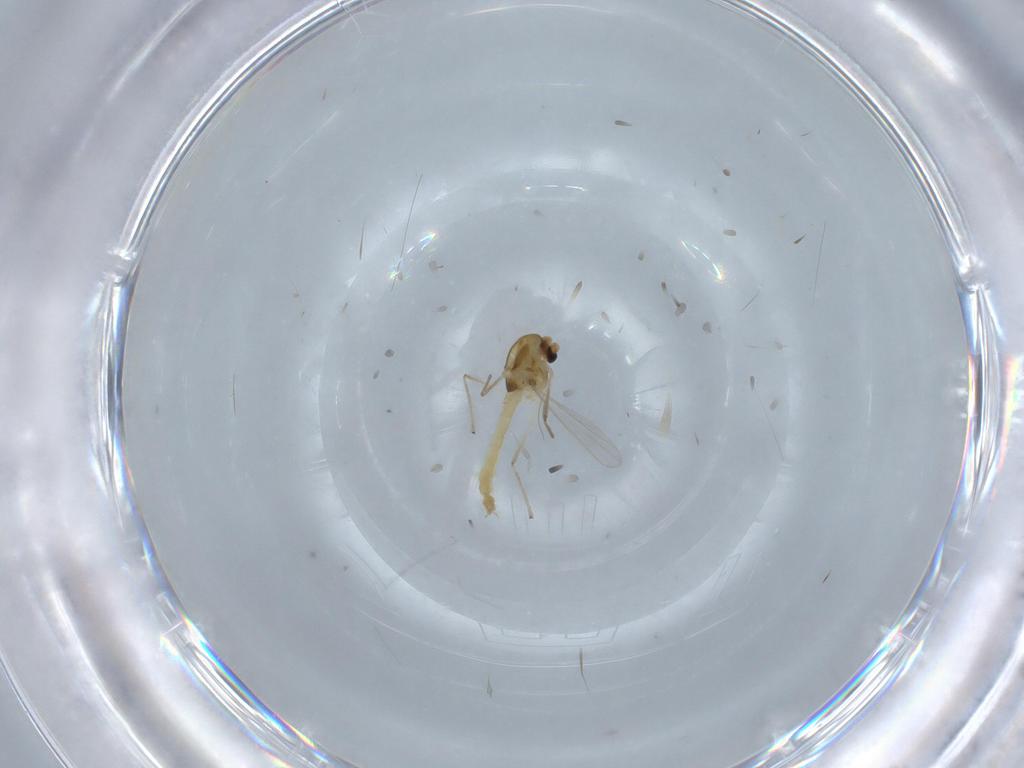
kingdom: Animalia
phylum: Arthropoda
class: Insecta
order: Diptera
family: Chironomidae
